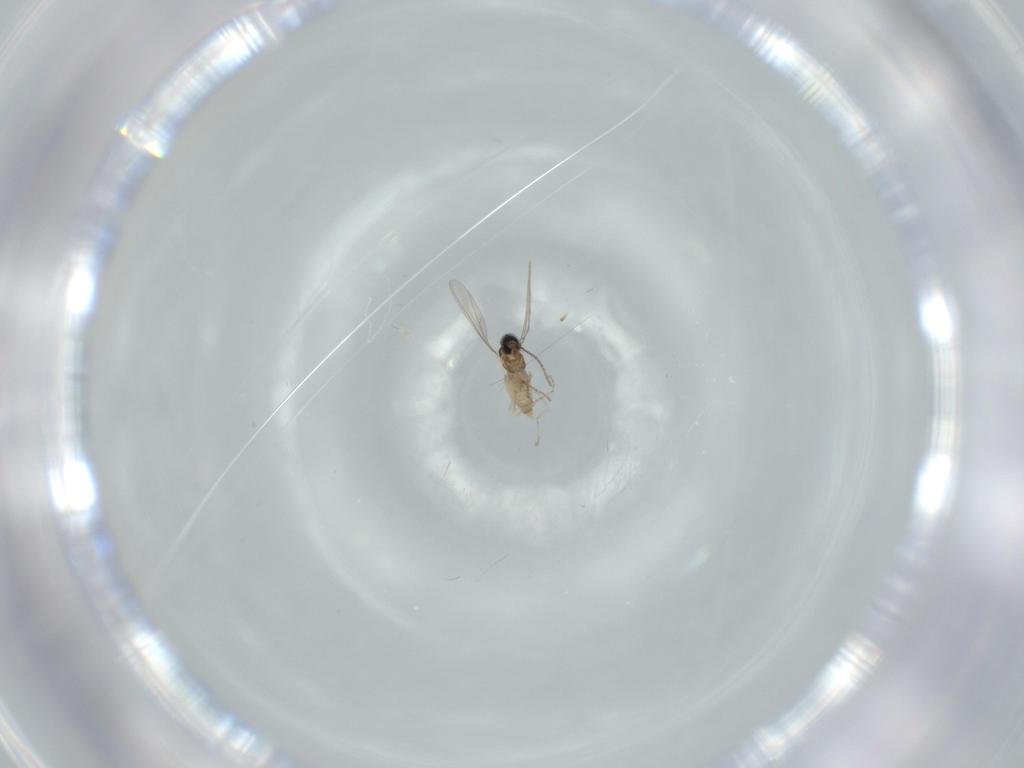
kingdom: Animalia
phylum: Arthropoda
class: Insecta
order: Diptera
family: Cecidomyiidae
